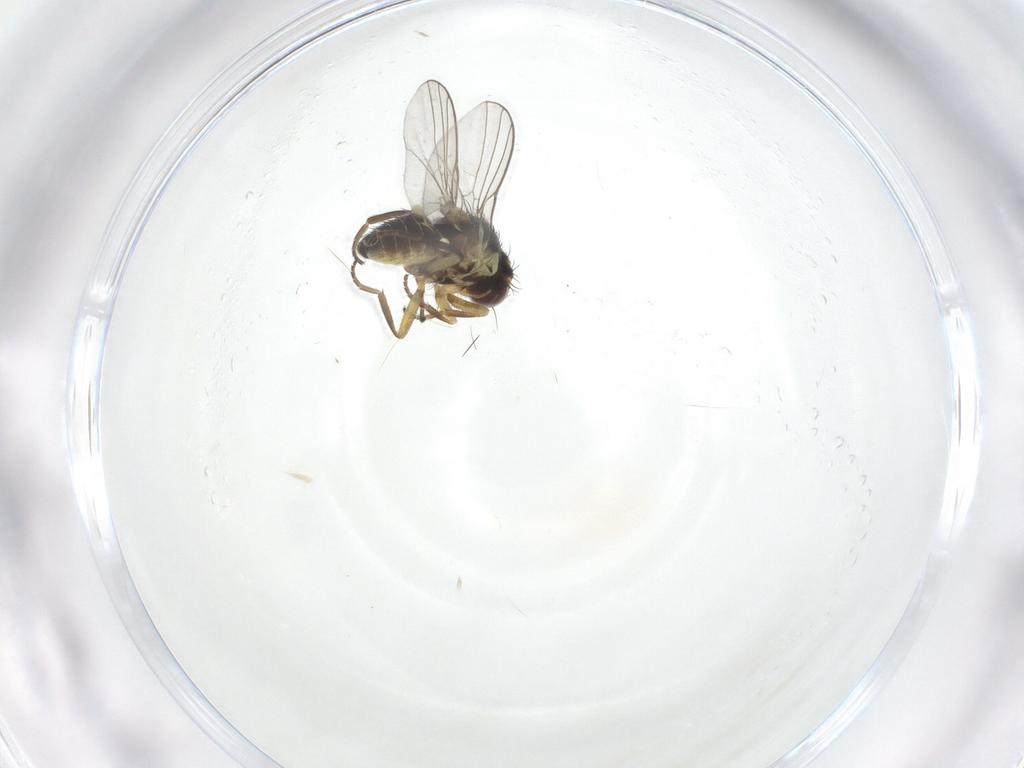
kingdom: Animalia
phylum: Arthropoda
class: Insecta
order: Diptera
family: Agromyzidae
